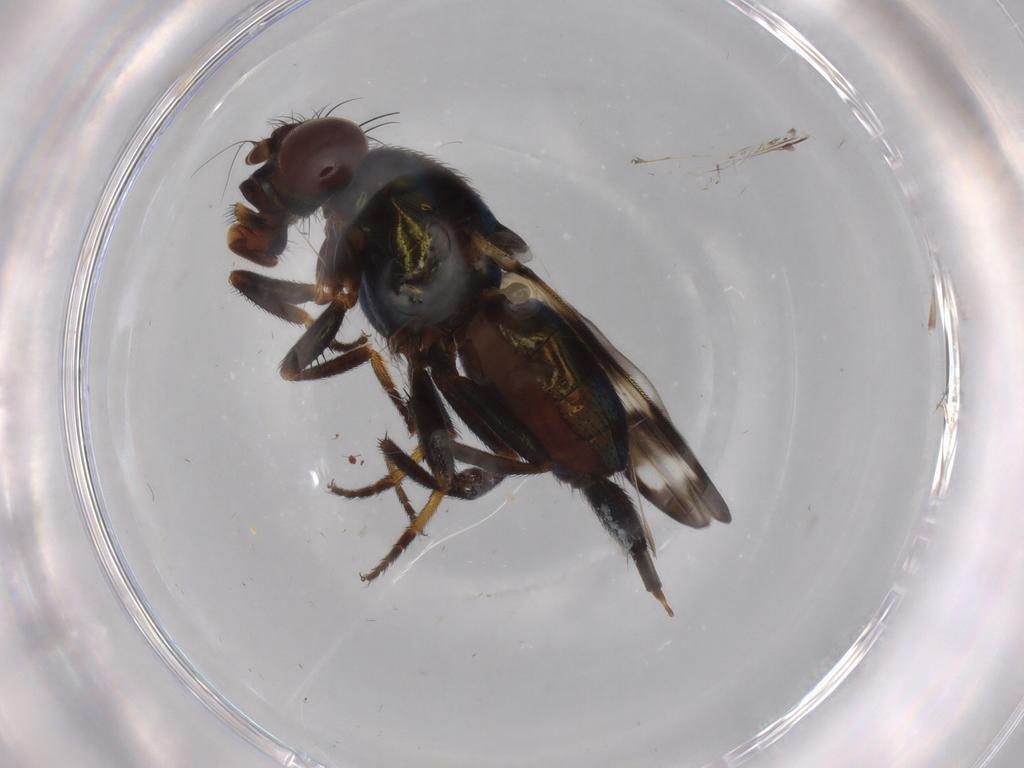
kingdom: Animalia
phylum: Arthropoda
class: Insecta
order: Diptera
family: Ulidiidae
